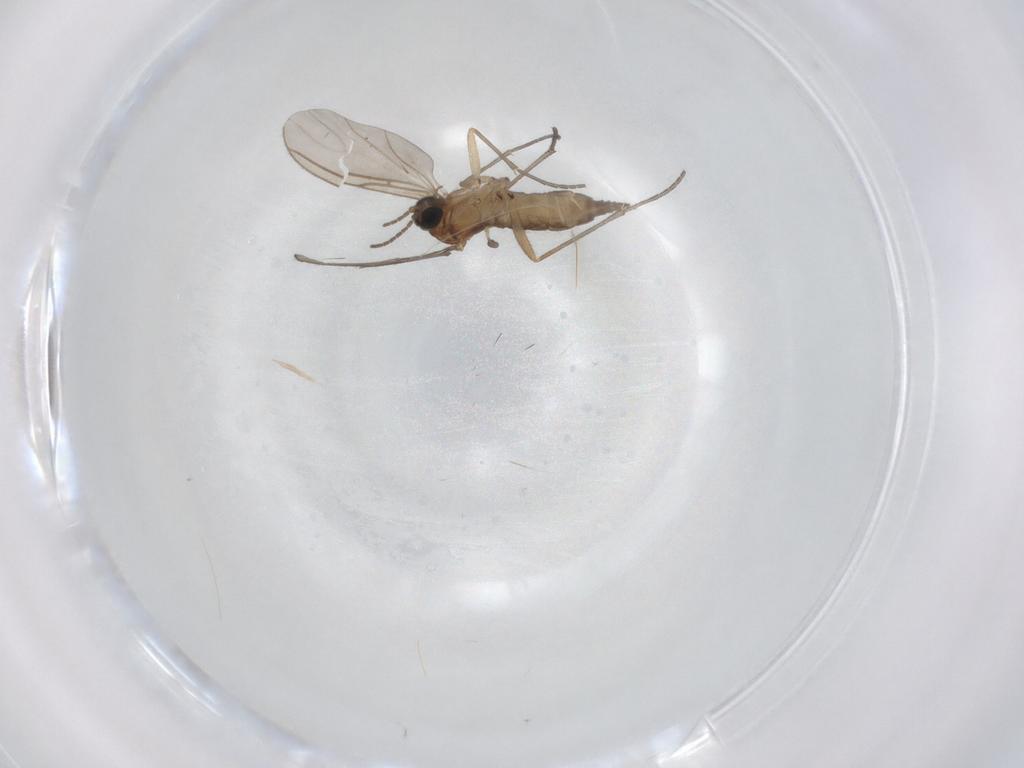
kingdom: Animalia
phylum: Arthropoda
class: Insecta
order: Diptera
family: Sciaridae
